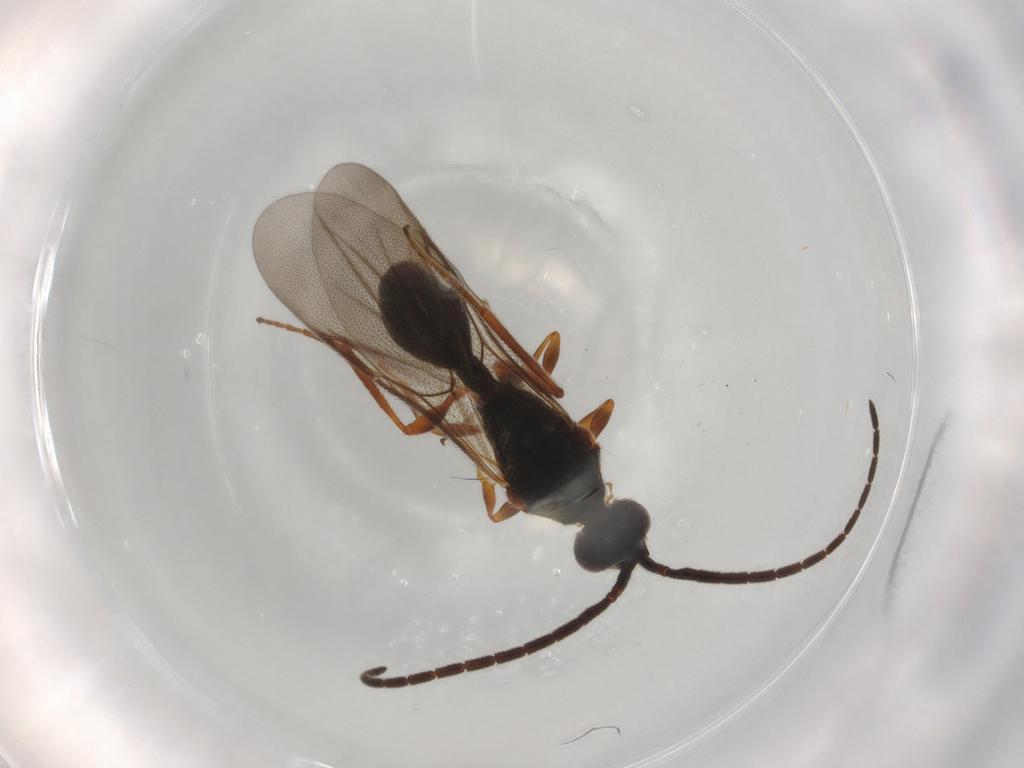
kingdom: Animalia
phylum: Arthropoda
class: Insecta
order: Hymenoptera
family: Diapriidae
